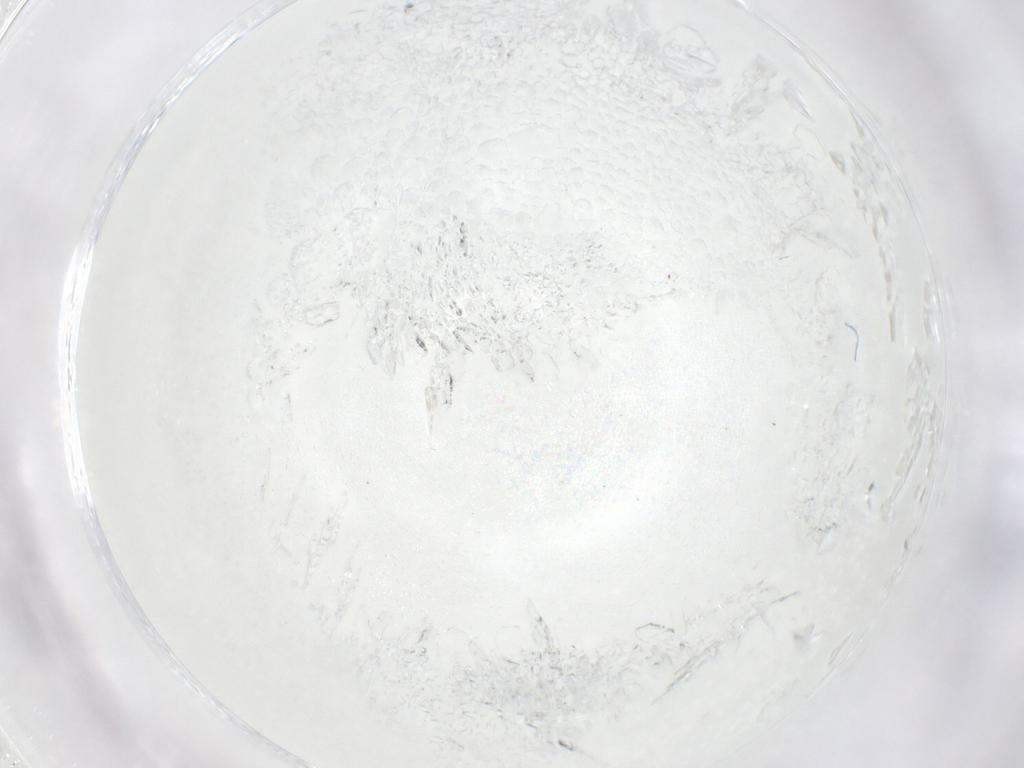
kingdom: Animalia
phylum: Arthropoda
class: Insecta
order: Diptera
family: Chironomidae
